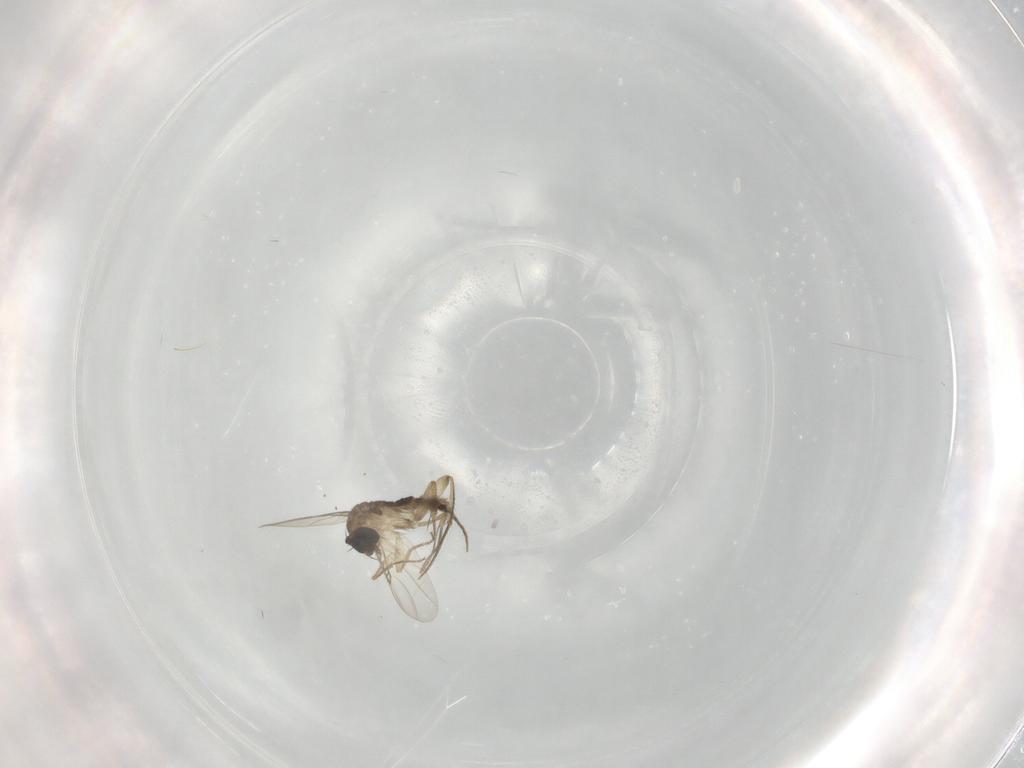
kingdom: Animalia
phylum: Arthropoda
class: Insecta
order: Diptera
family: Phoridae
